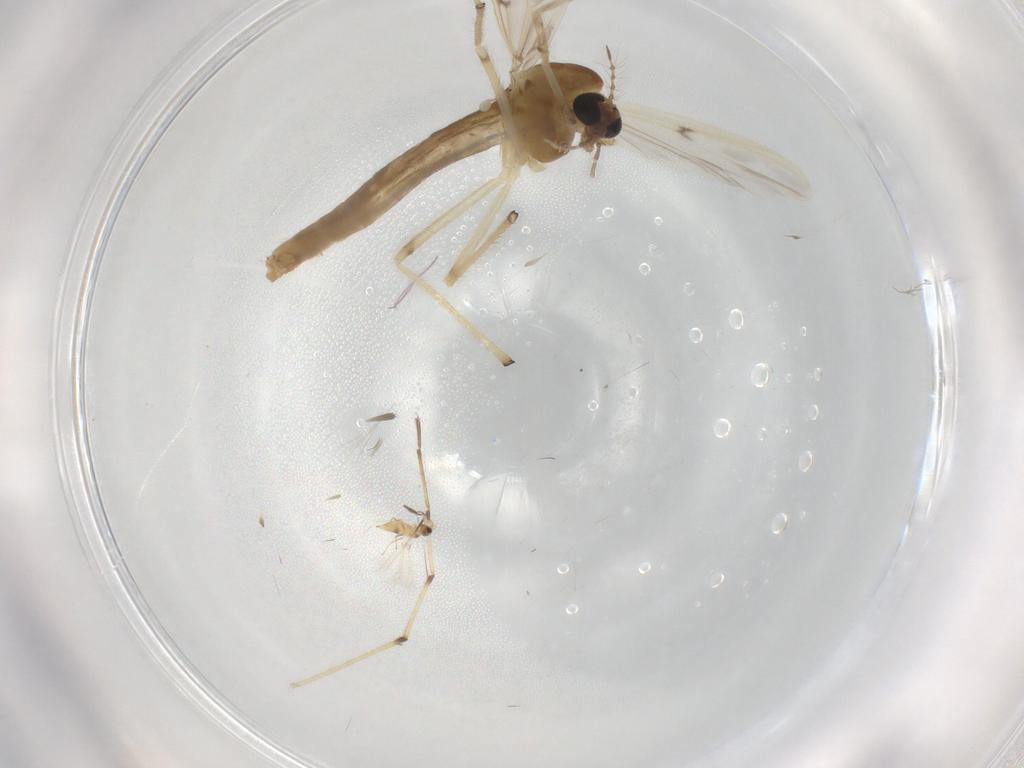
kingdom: Animalia
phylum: Arthropoda
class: Insecta
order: Diptera
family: Chironomidae
